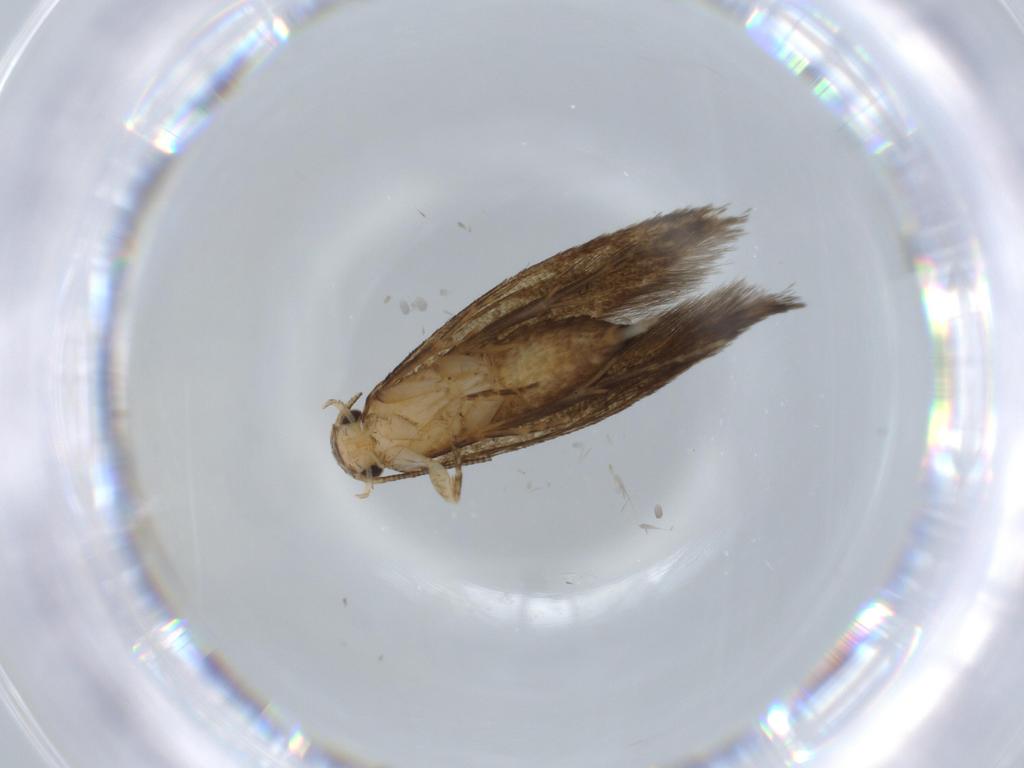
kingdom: Animalia
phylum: Arthropoda
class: Insecta
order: Lepidoptera
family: Tineidae
